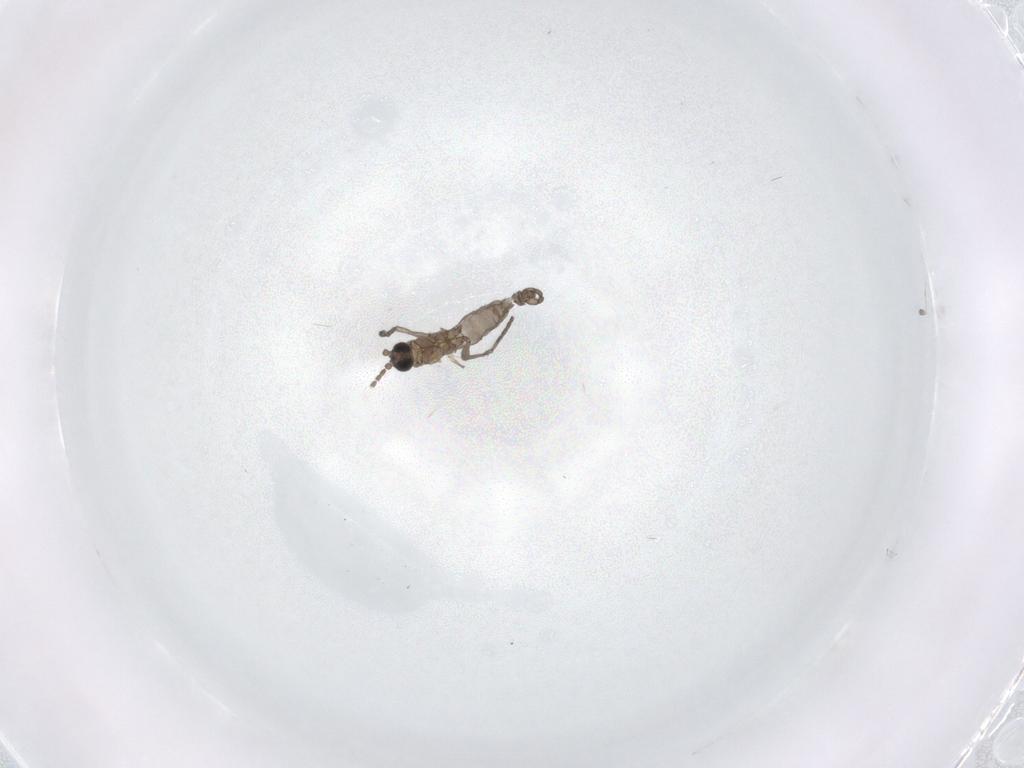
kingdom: Animalia
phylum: Arthropoda
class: Insecta
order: Diptera
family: Sciaridae
